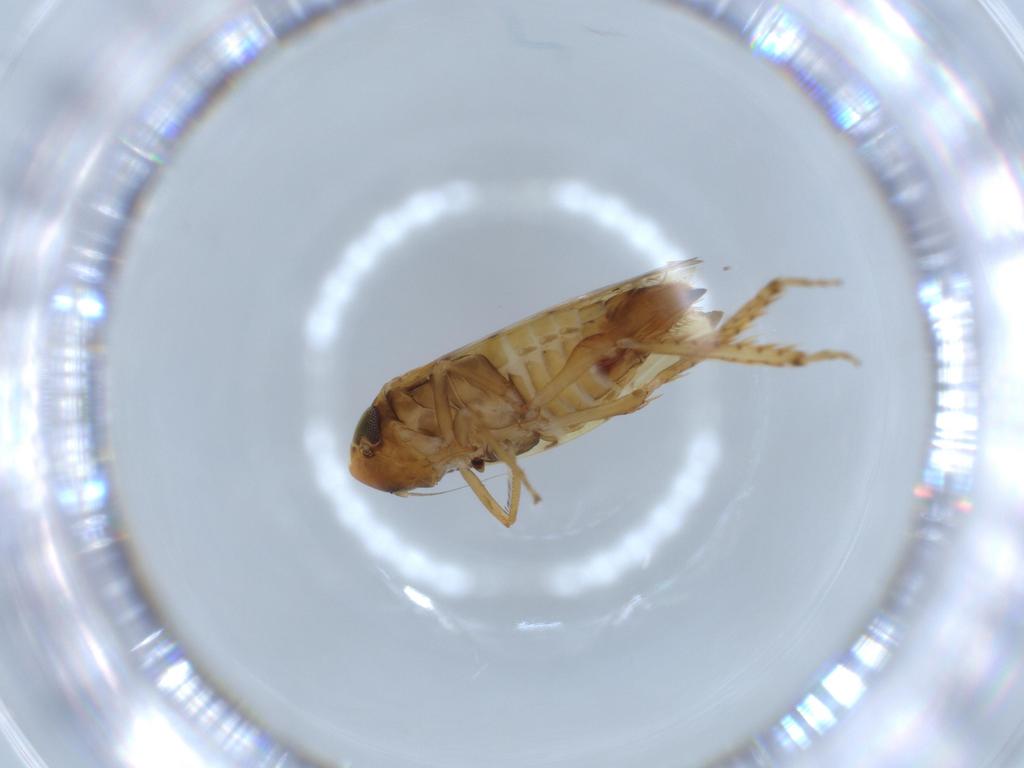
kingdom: Animalia
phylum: Arthropoda
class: Insecta
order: Hemiptera
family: Cicadellidae
